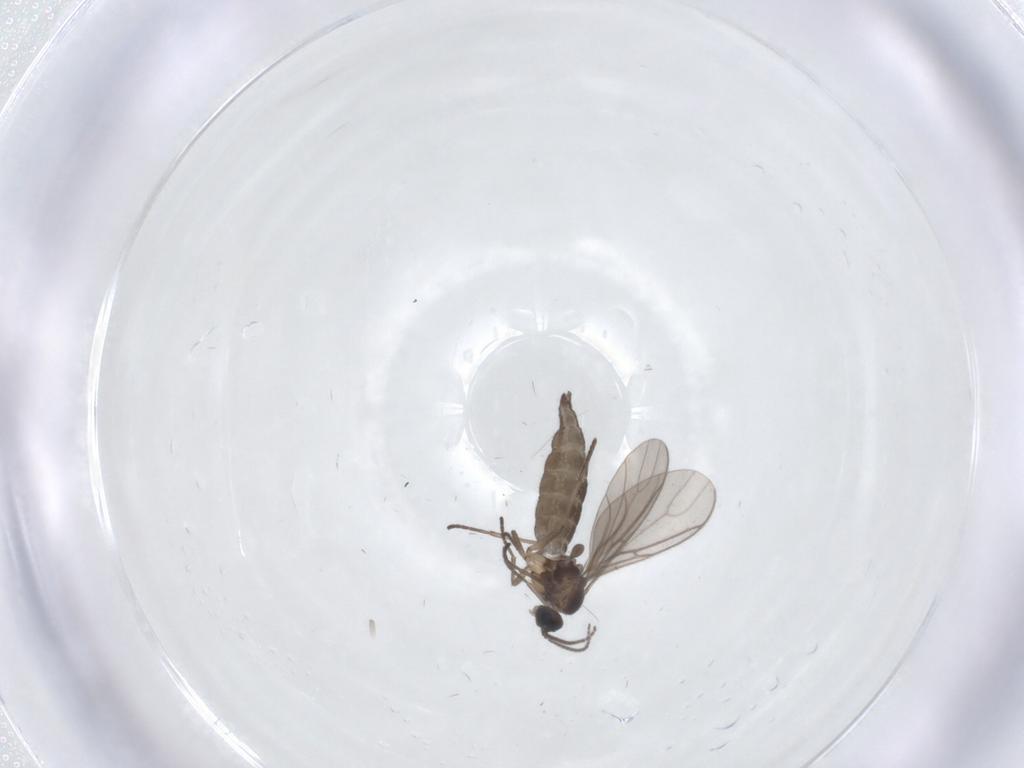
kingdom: Animalia
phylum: Arthropoda
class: Insecta
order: Diptera
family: Sciaridae
